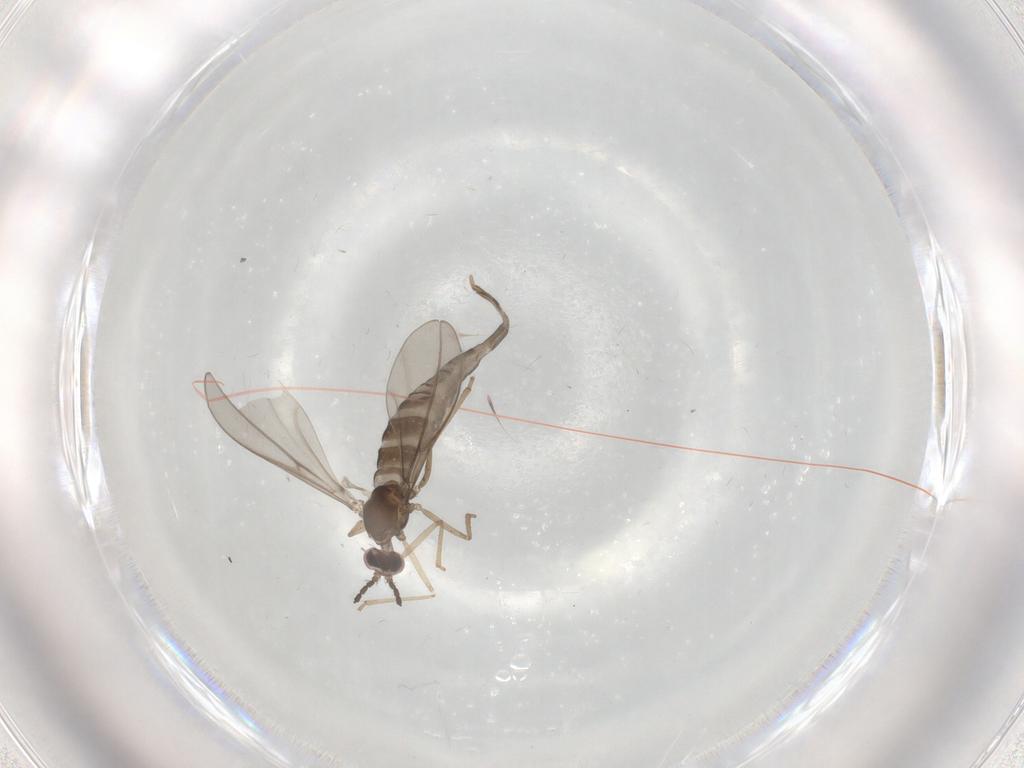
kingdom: Animalia
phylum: Arthropoda
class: Insecta
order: Diptera
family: Cecidomyiidae
